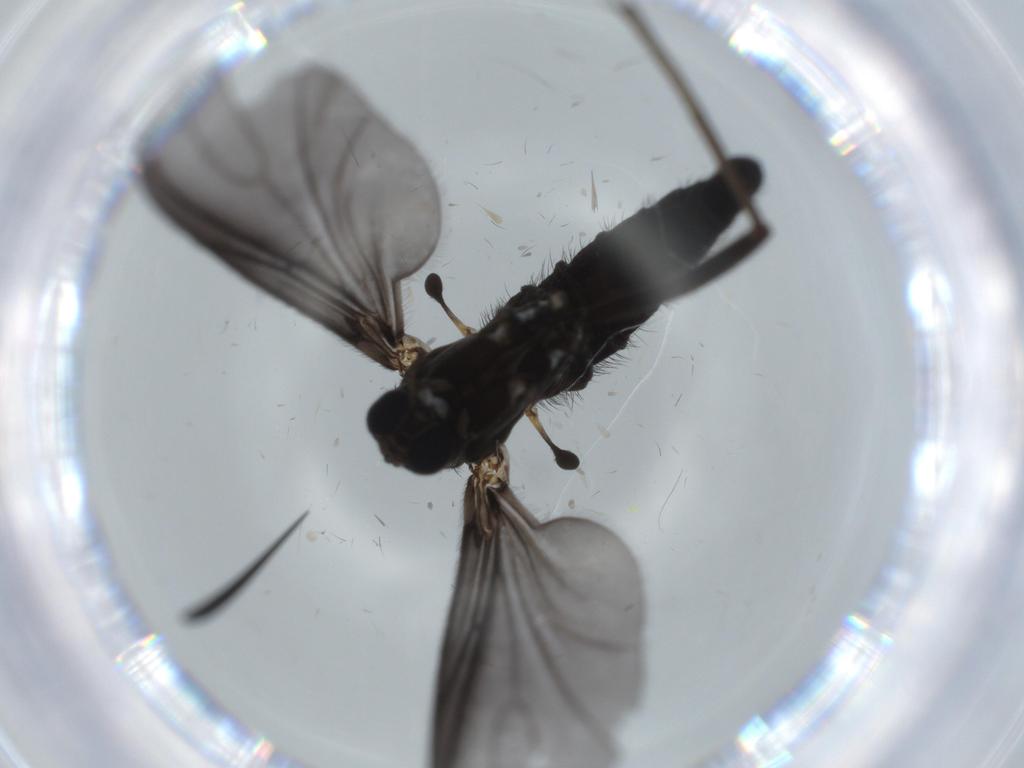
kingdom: Animalia
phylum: Arthropoda
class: Insecta
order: Diptera
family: Sciaridae
